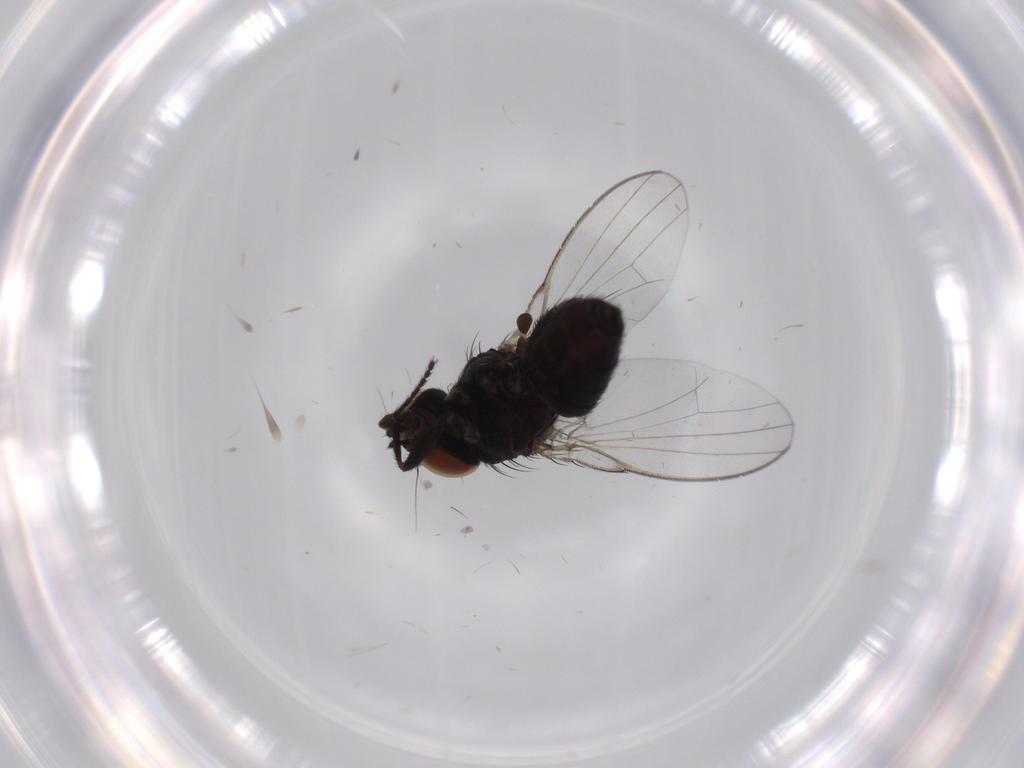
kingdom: Animalia
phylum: Arthropoda
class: Insecta
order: Diptera
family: Milichiidae
